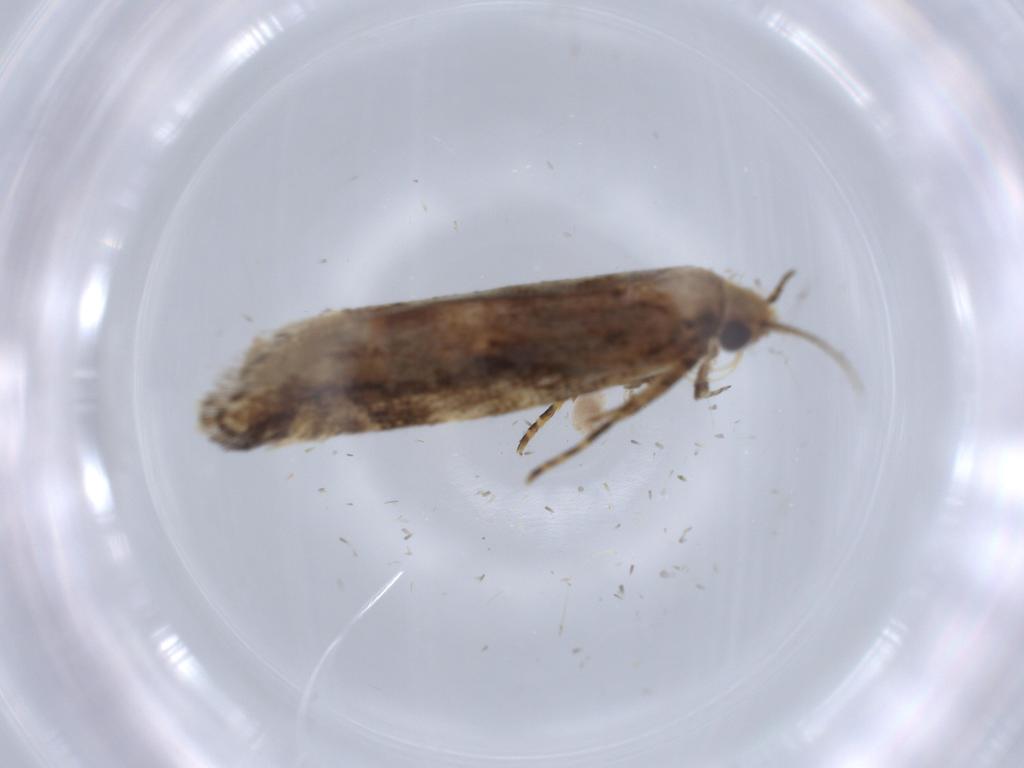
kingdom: Animalia
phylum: Arthropoda
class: Insecta
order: Lepidoptera
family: Gelechiidae
